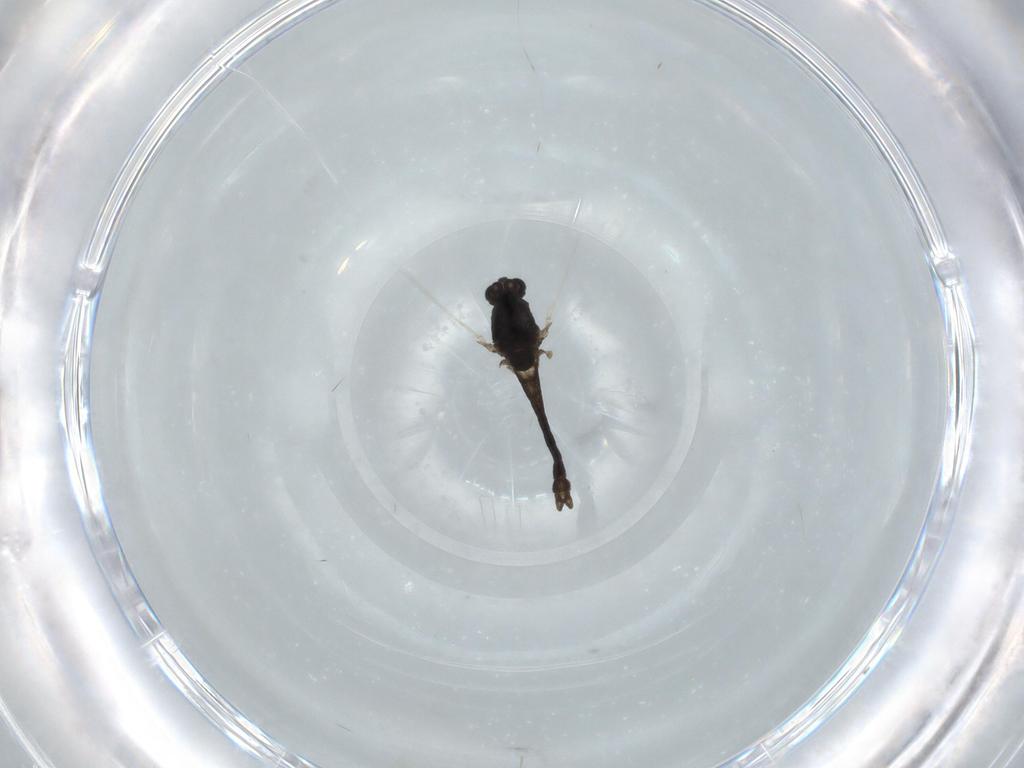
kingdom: Animalia
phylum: Arthropoda
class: Insecta
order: Diptera
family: Chironomidae
